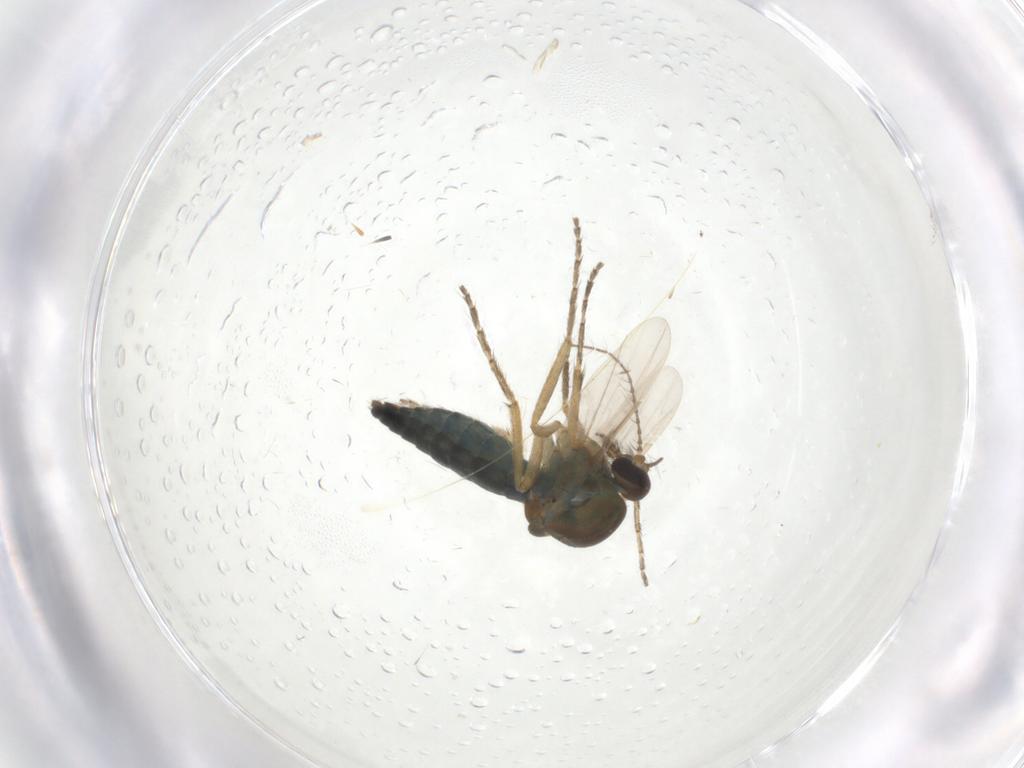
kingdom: Animalia
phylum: Arthropoda
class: Insecta
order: Diptera
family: Ceratopogonidae
